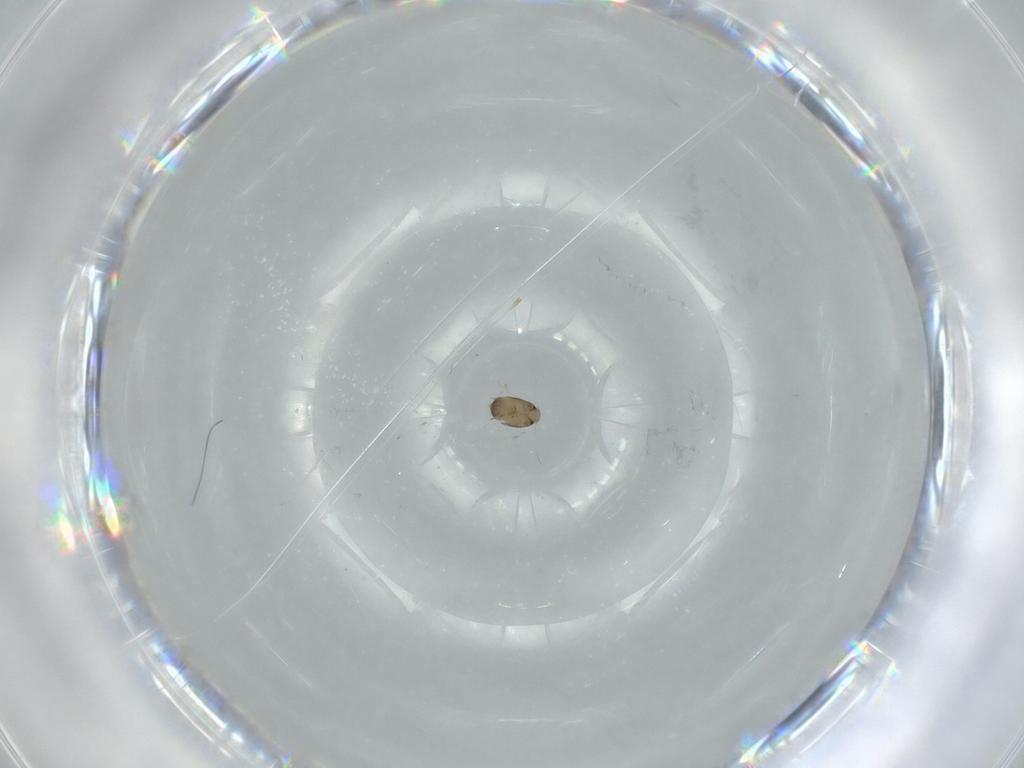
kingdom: Animalia
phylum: Arthropoda
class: Insecta
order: Diptera
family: Phoridae
